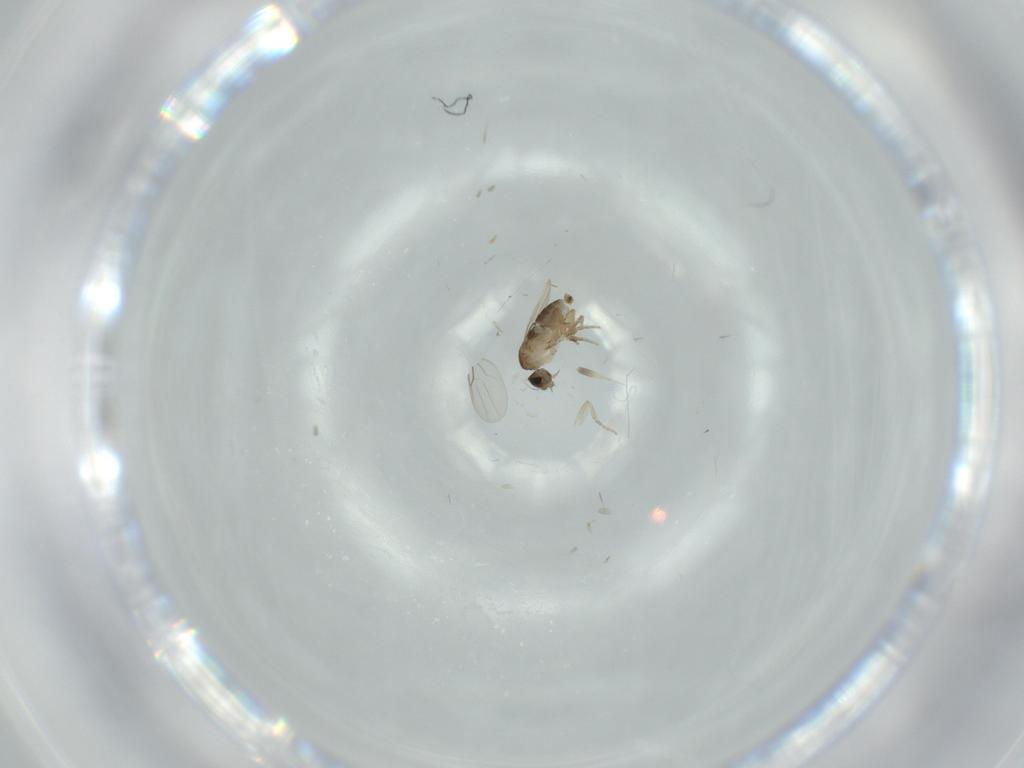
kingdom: Animalia
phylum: Arthropoda
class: Insecta
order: Diptera
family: Phoridae
